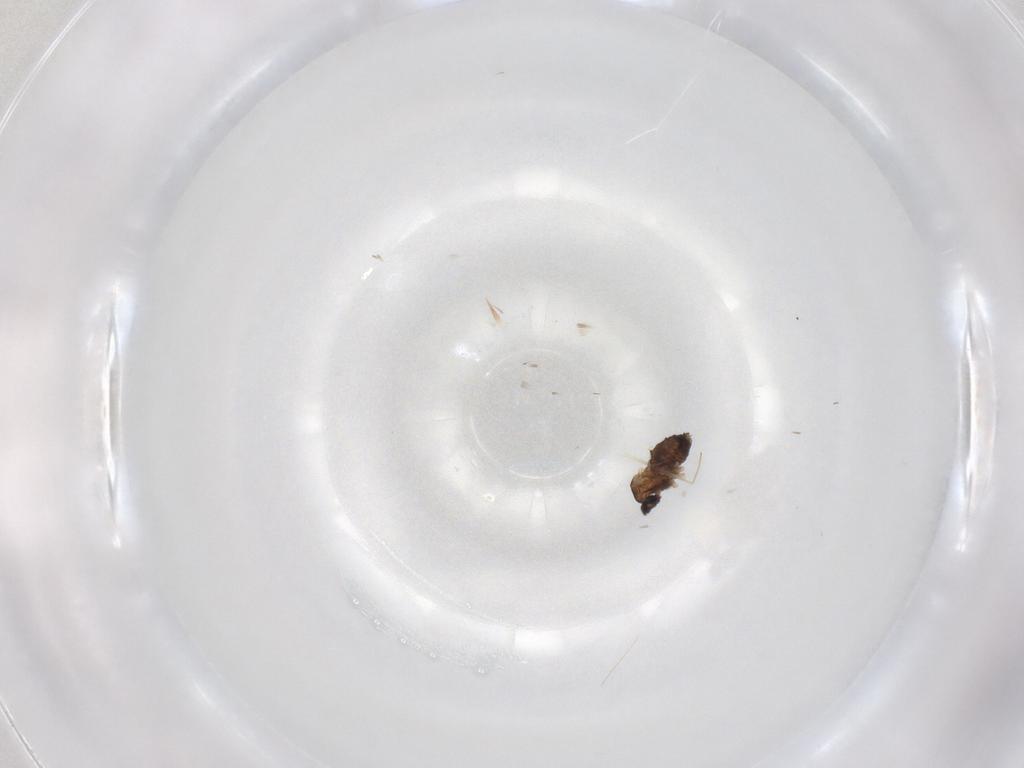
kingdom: Animalia
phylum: Arthropoda
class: Insecta
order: Diptera
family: Cecidomyiidae
